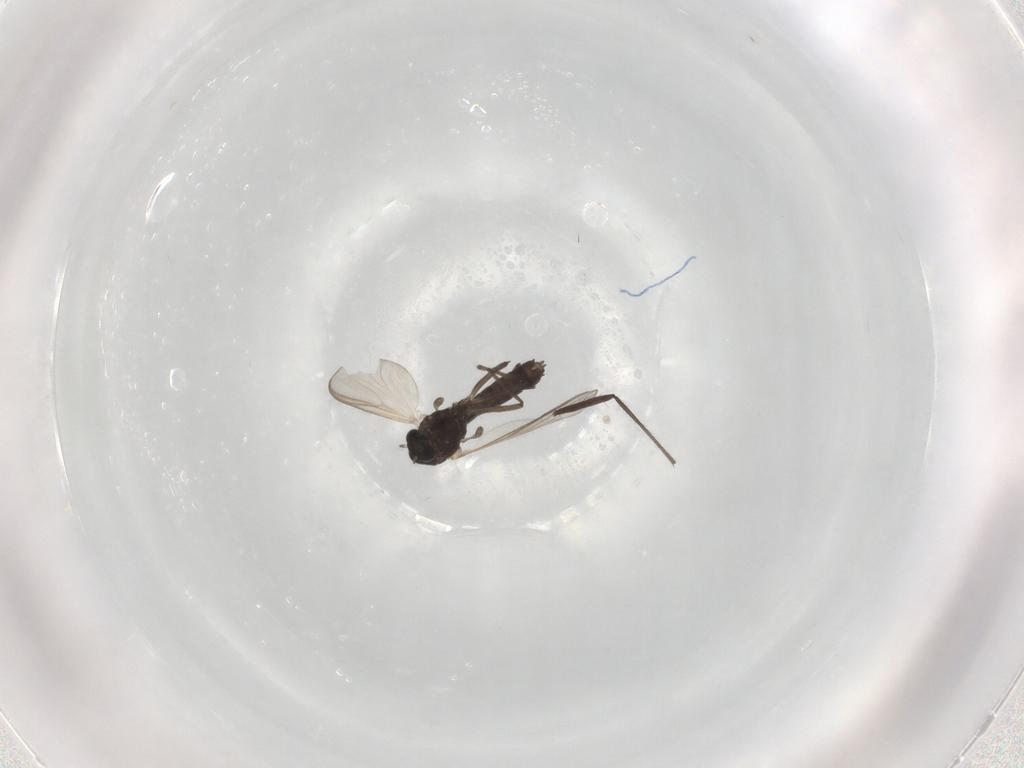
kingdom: Animalia
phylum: Arthropoda
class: Insecta
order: Diptera
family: Chironomidae
